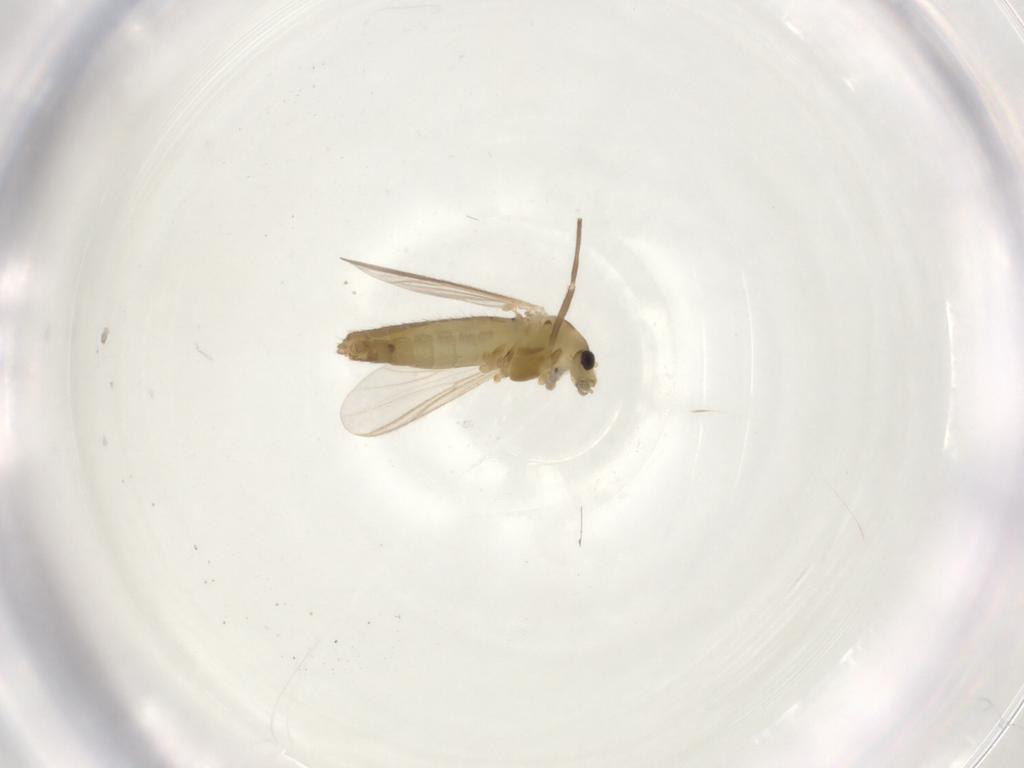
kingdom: Animalia
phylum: Arthropoda
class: Insecta
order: Diptera
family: Chironomidae
